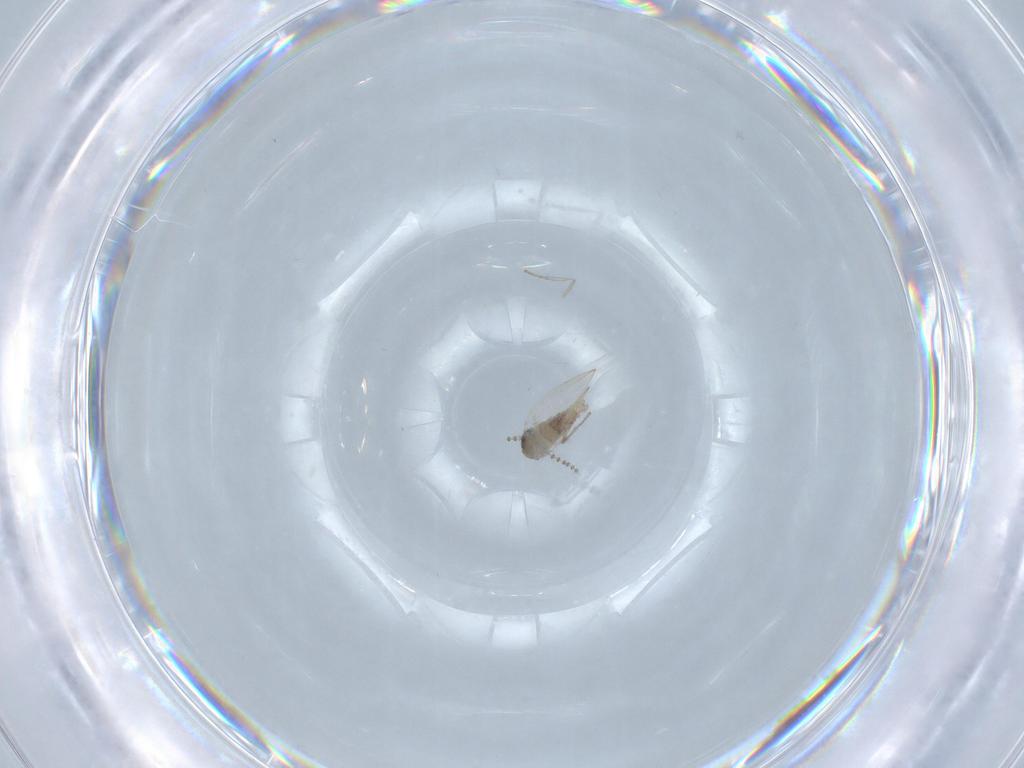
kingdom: Animalia
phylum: Arthropoda
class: Insecta
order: Diptera
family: Psychodidae
